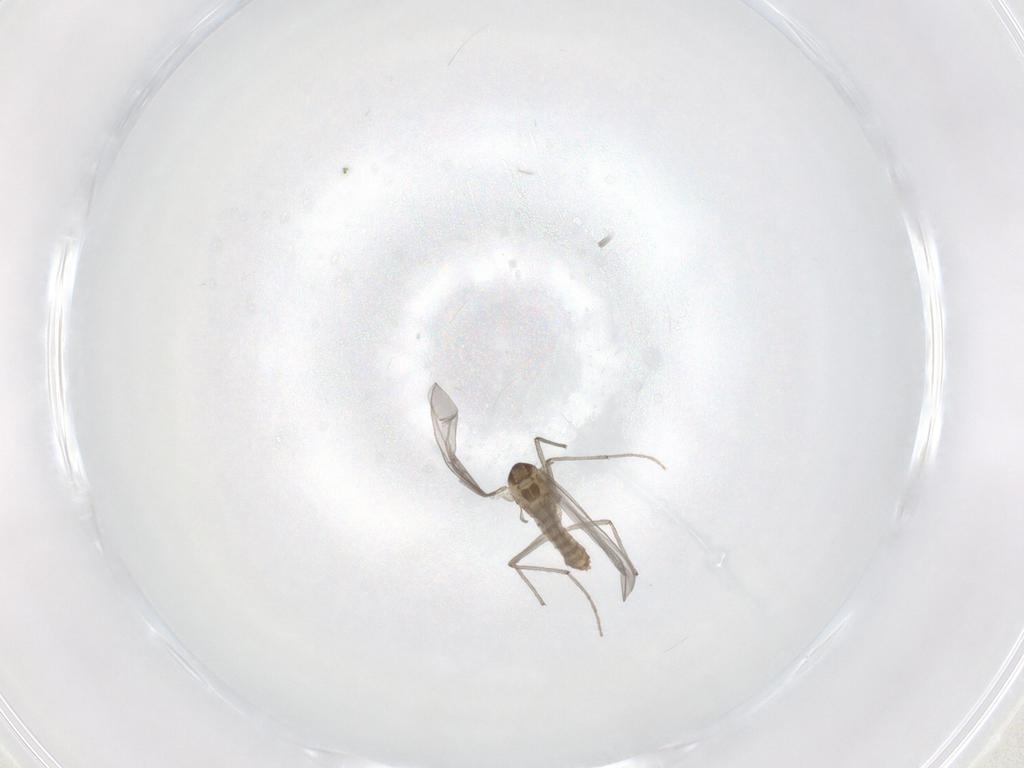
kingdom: Animalia
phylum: Arthropoda
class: Insecta
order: Diptera
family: Chironomidae
